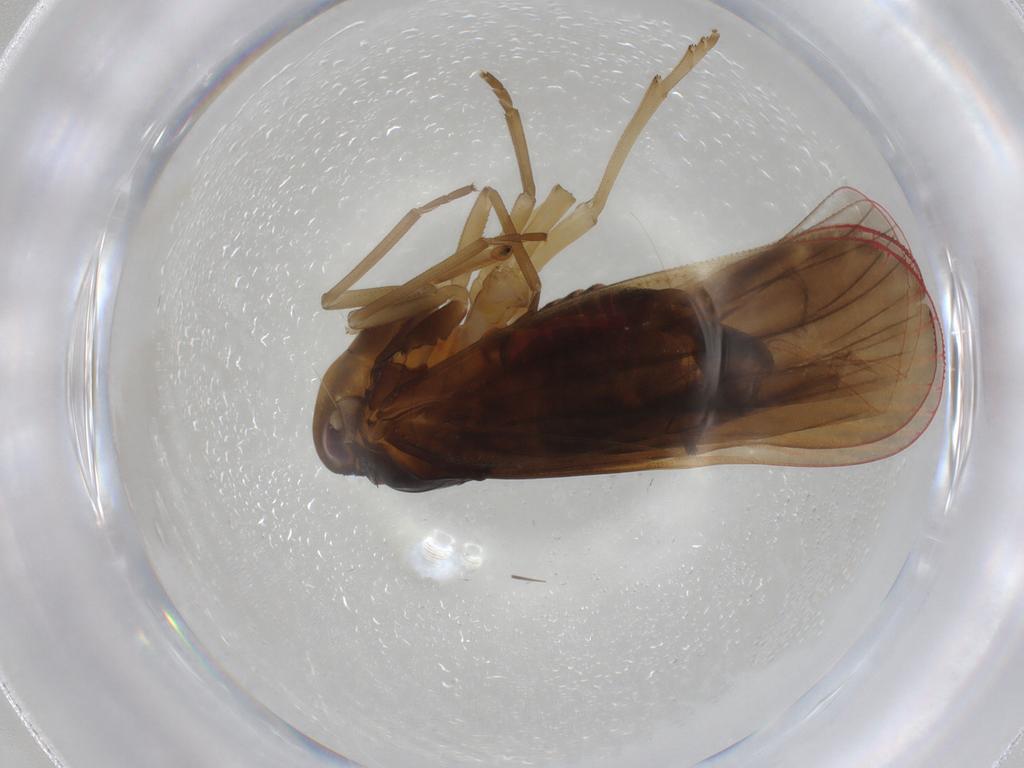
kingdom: Animalia
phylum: Arthropoda
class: Insecta
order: Hemiptera
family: Derbidae
